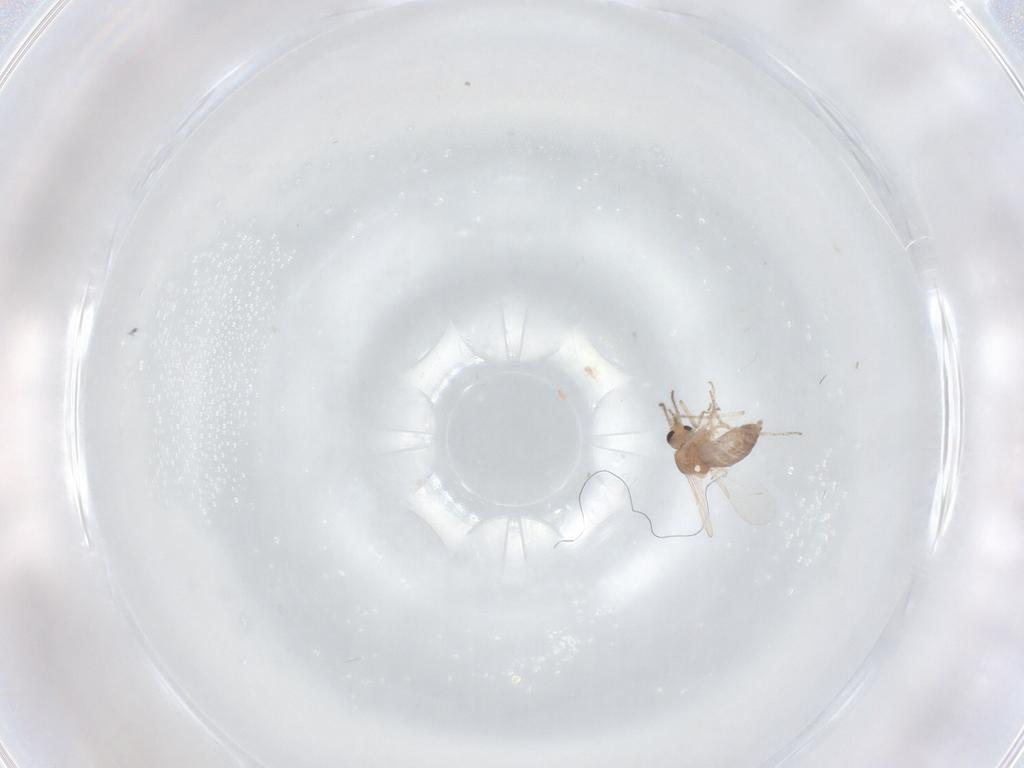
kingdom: Animalia
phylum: Arthropoda
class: Insecta
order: Diptera
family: Ceratopogonidae
